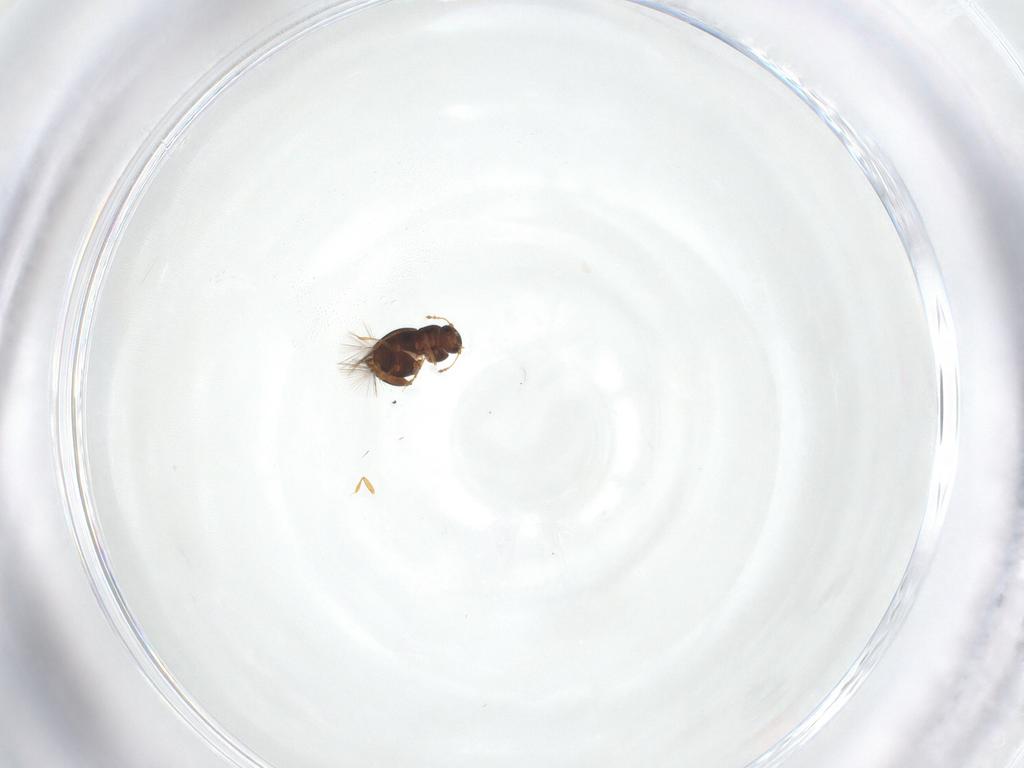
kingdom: Animalia
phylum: Arthropoda
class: Insecta
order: Coleoptera
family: Ptiliidae
